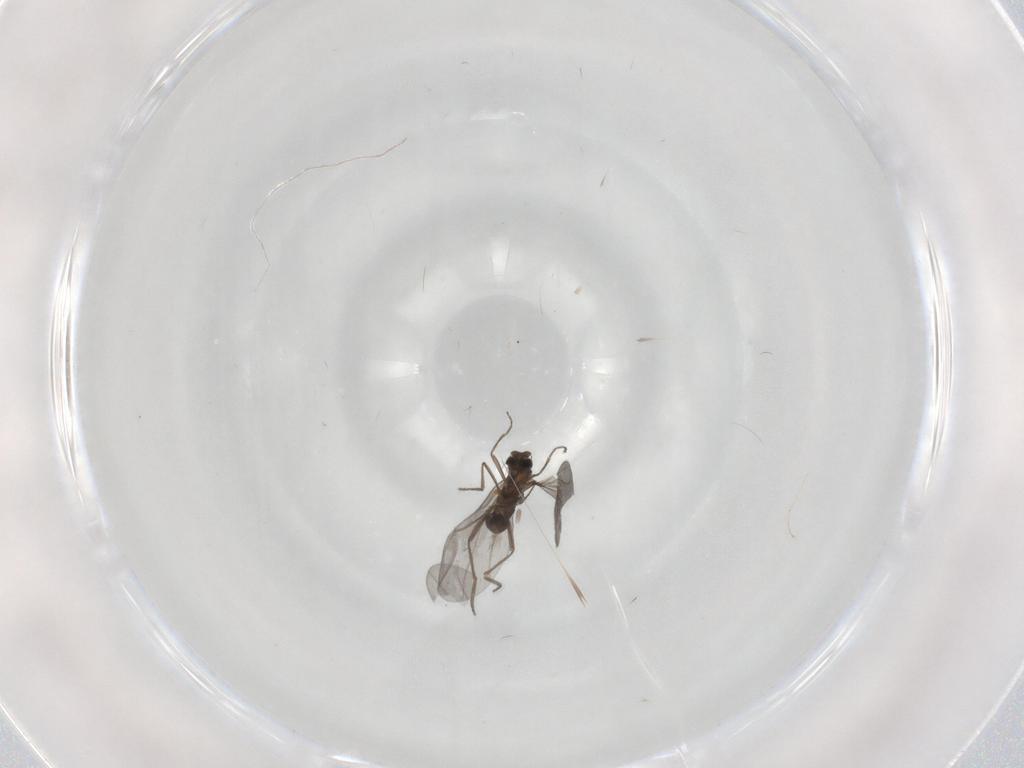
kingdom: Animalia
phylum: Arthropoda
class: Insecta
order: Diptera
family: Cecidomyiidae
